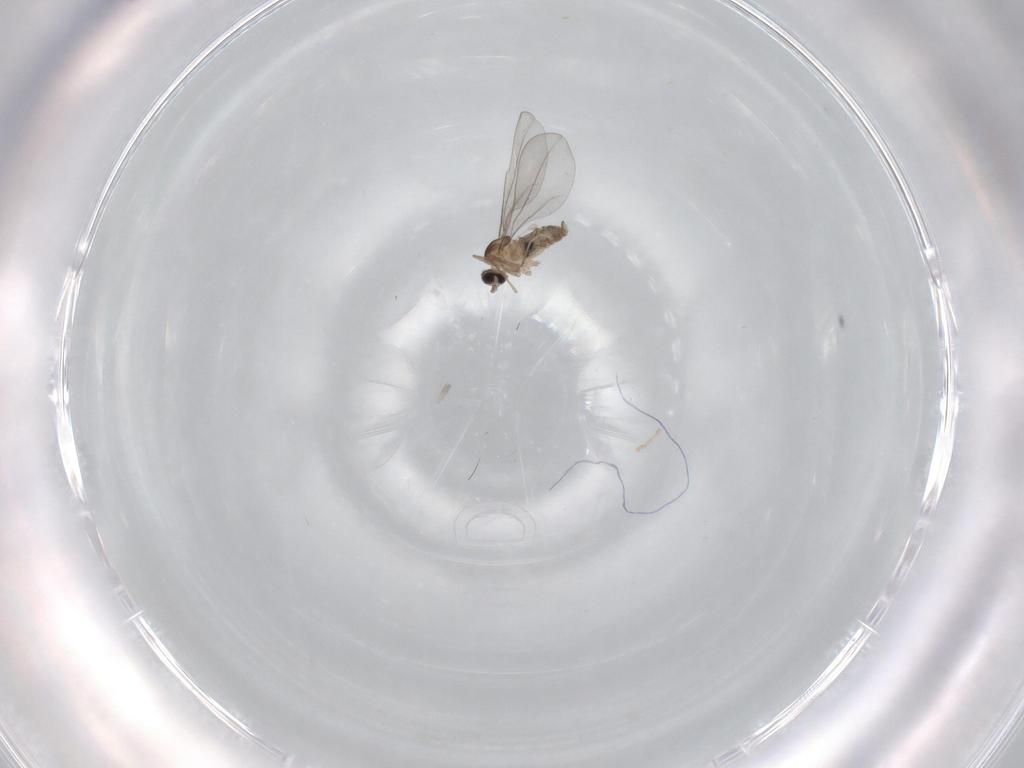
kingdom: Animalia
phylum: Arthropoda
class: Insecta
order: Diptera
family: Cecidomyiidae
